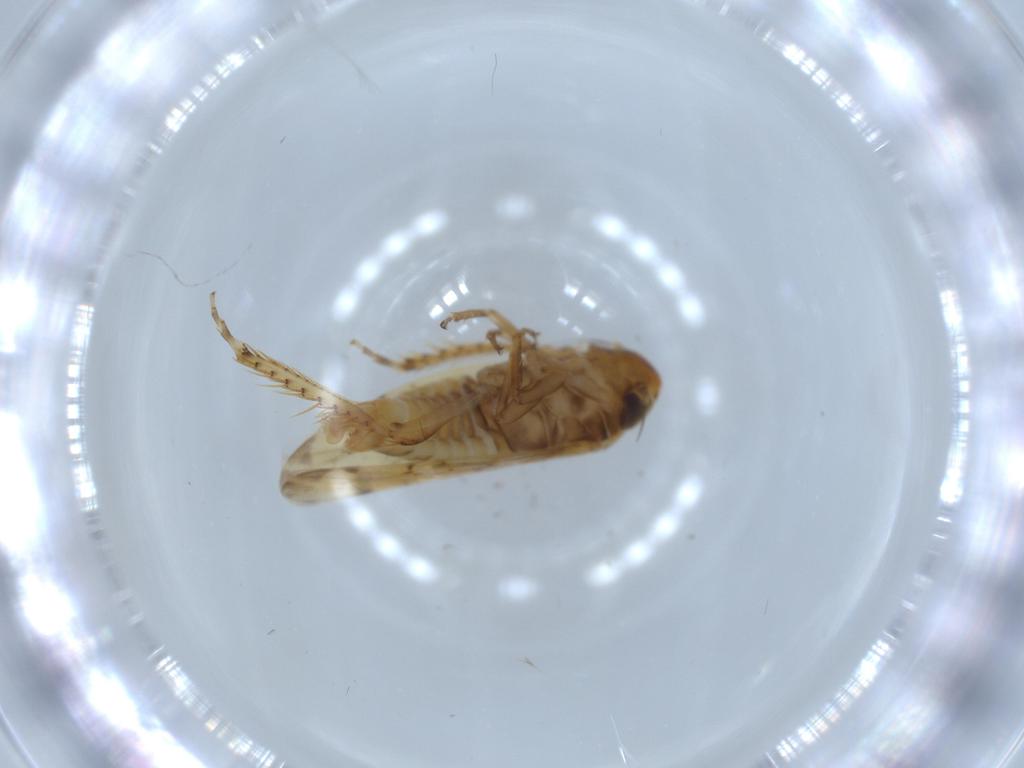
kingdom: Animalia
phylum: Arthropoda
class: Insecta
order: Hemiptera
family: Cicadellidae
